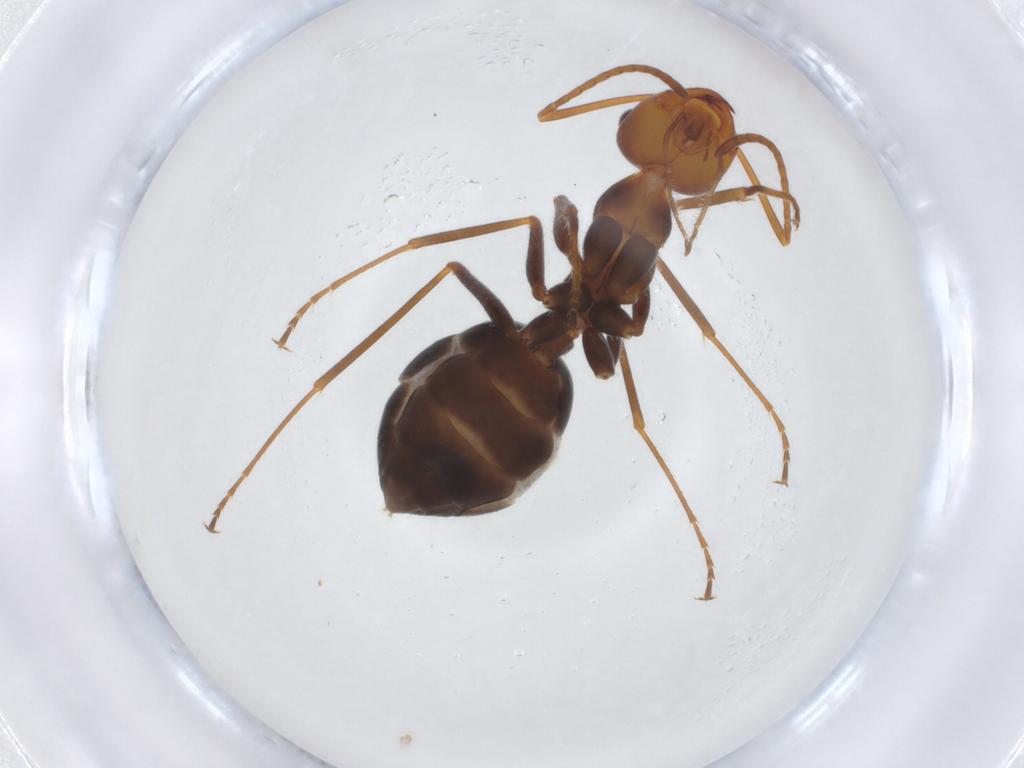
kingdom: Animalia
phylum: Arthropoda
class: Insecta
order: Hymenoptera
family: Formicidae
